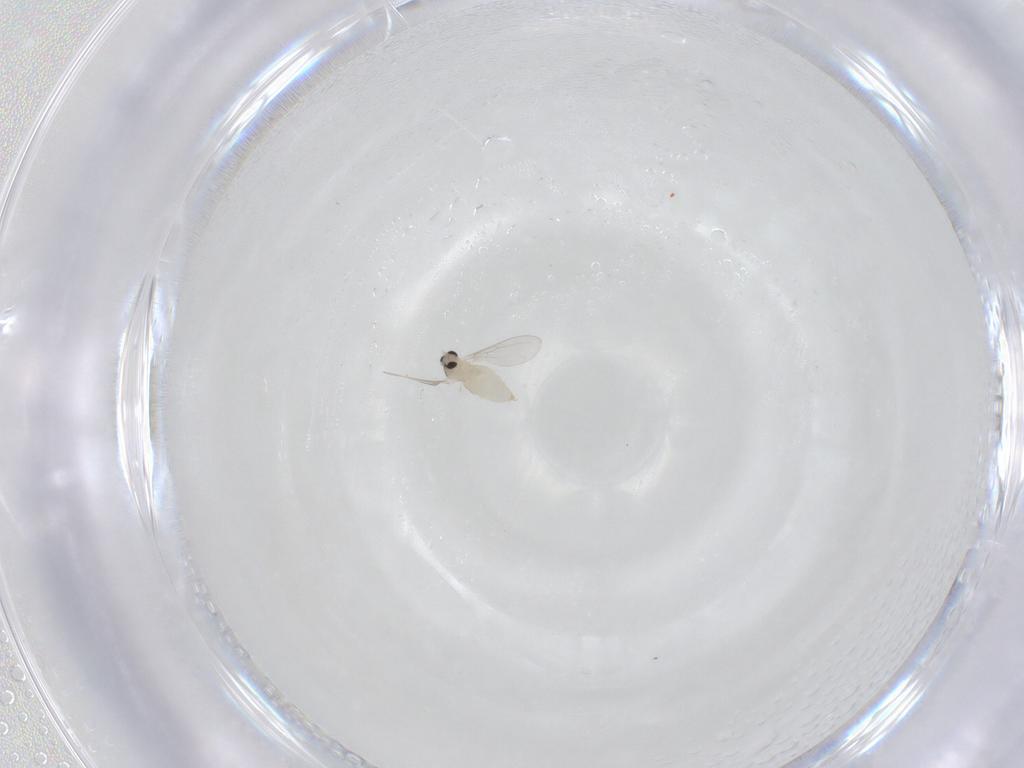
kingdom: Animalia
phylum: Arthropoda
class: Insecta
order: Diptera
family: Cecidomyiidae
